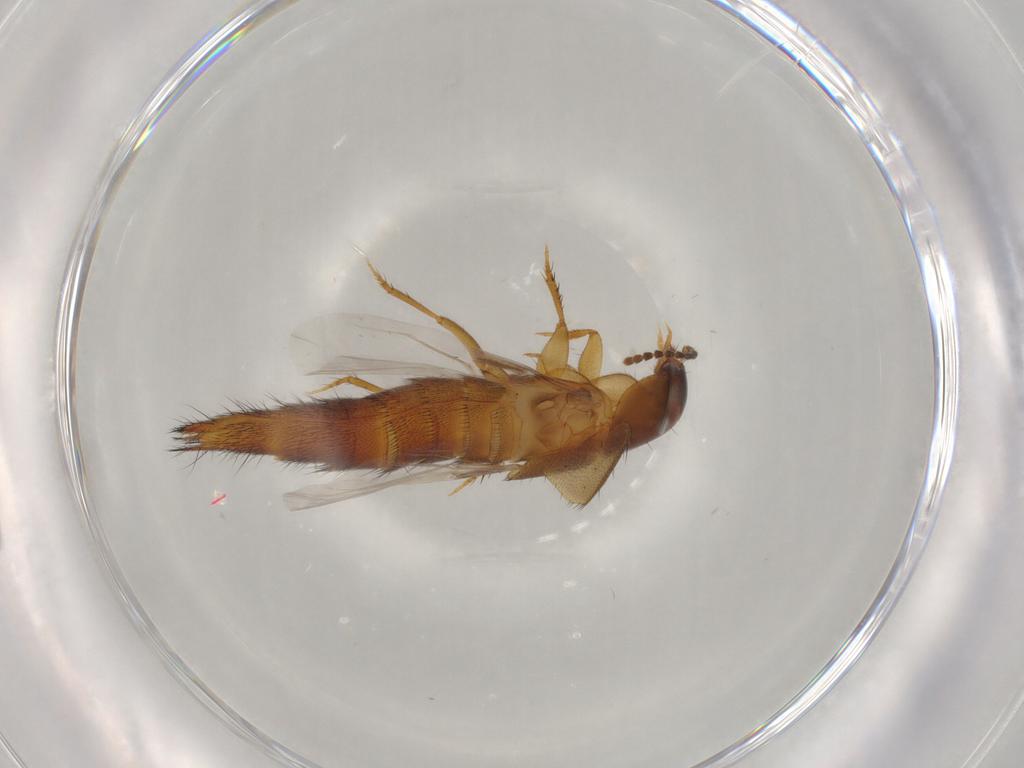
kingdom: Animalia
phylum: Arthropoda
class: Insecta
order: Coleoptera
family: Staphylinidae
